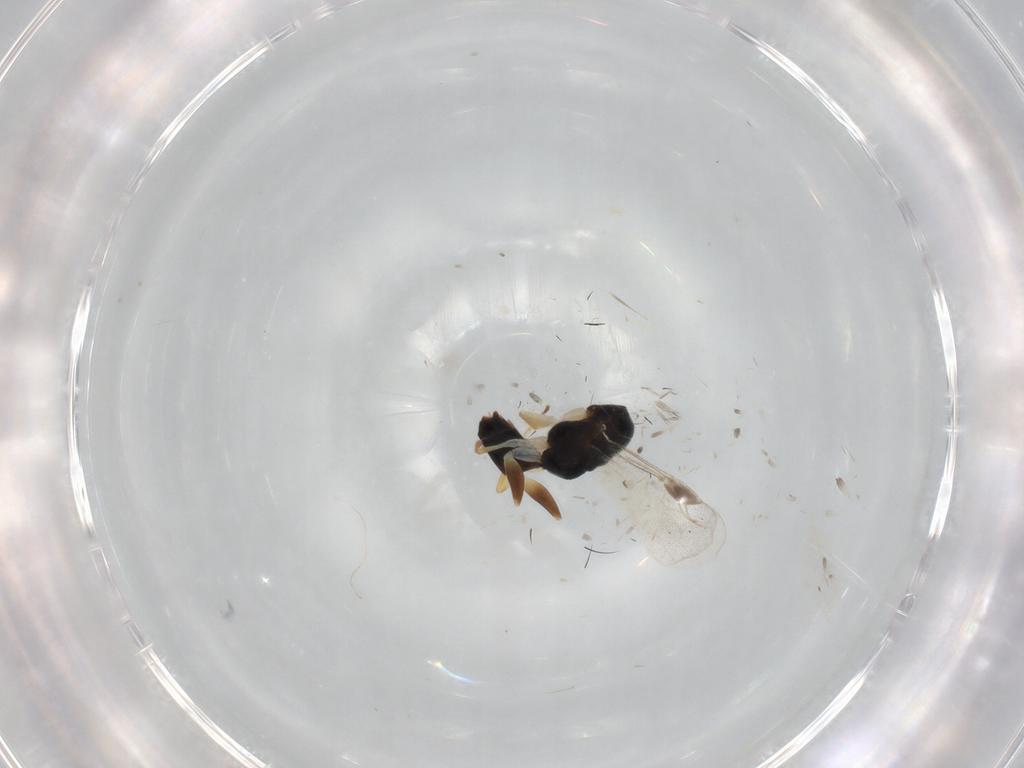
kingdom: Animalia
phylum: Arthropoda
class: Insecta
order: Hymenoptera
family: Dryinidae
